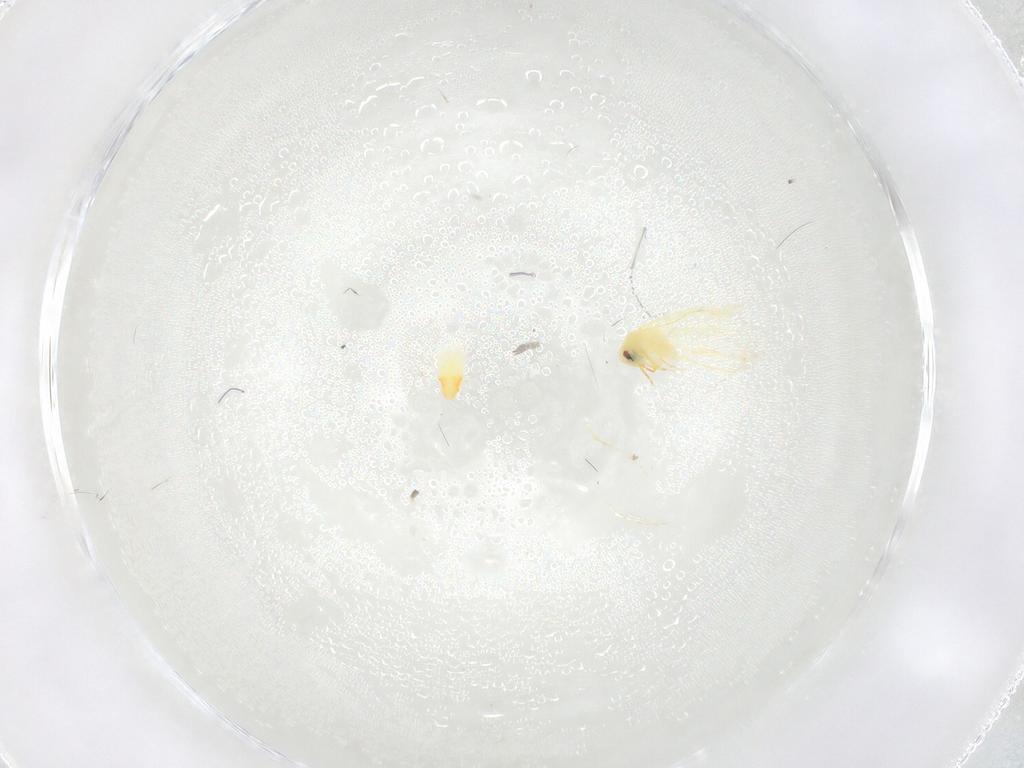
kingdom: Animalia
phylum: Arthropoda
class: Insecta
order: Hemiptera
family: Aleyrodidae
